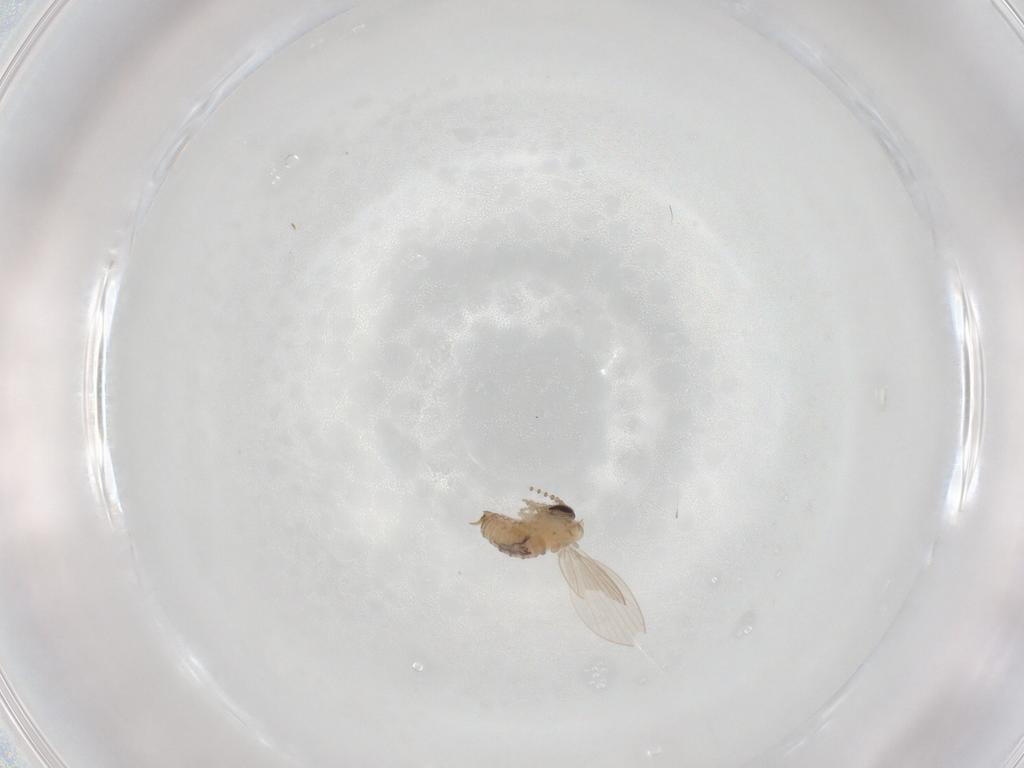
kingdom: Animalia
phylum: Arthropoda
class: Insecta
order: Diptera
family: Psychodidae
